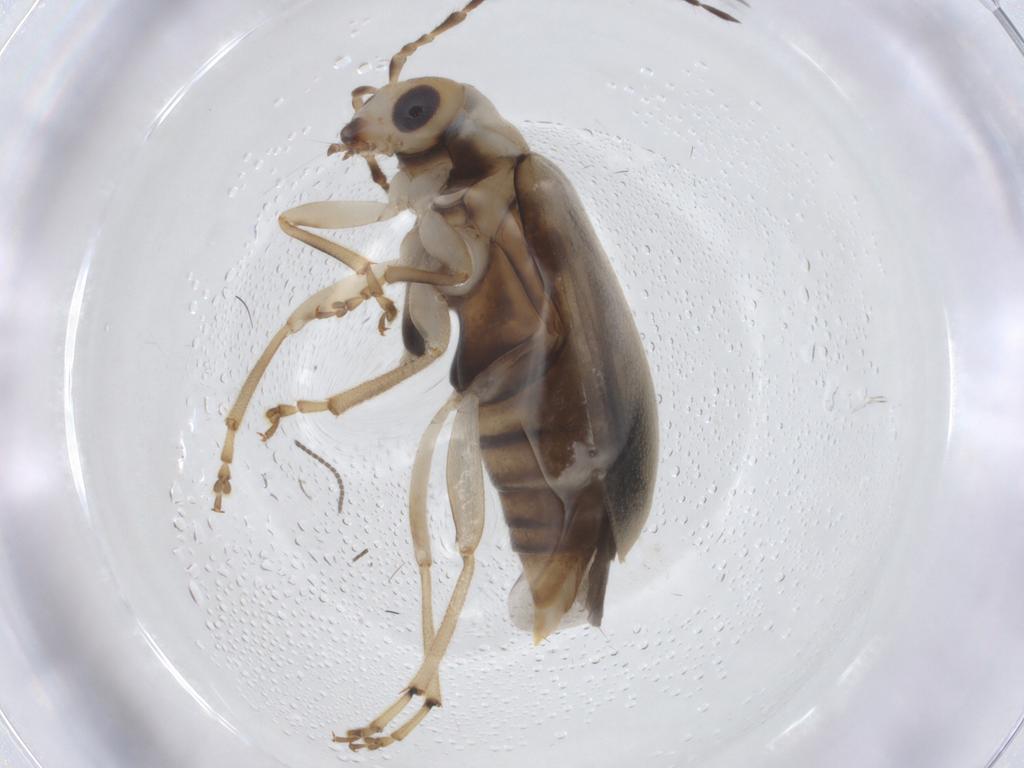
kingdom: Animalia
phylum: Arthropoda
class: Insecta
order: Coleoptera
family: Chrysomelidae
